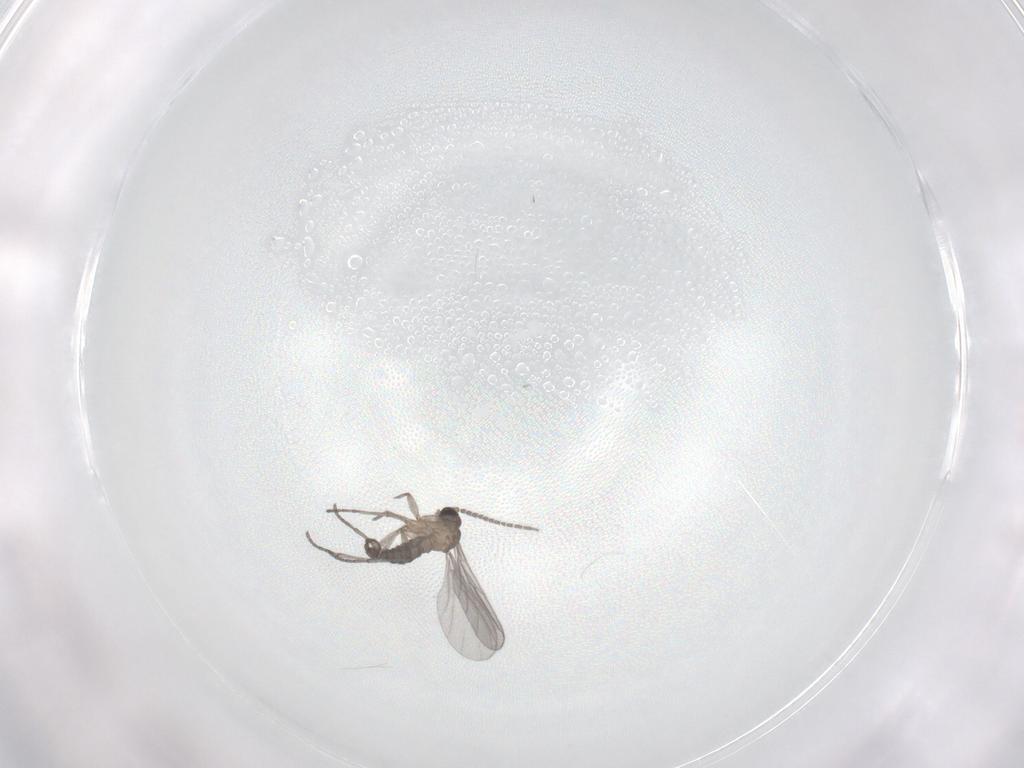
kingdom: Animalia
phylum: Arthropoda
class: Insecta
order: Diptera
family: Sciaridae
